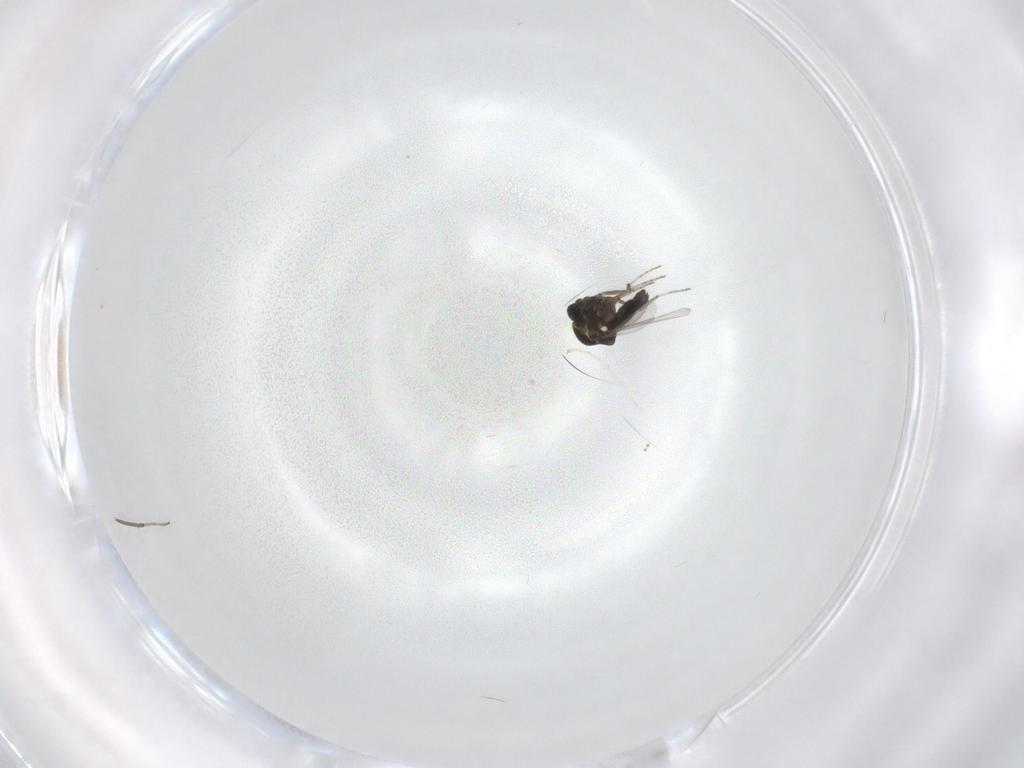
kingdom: Animalia
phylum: Arthropoda
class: Insecta
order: Diptera
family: Ceratopogonidae
